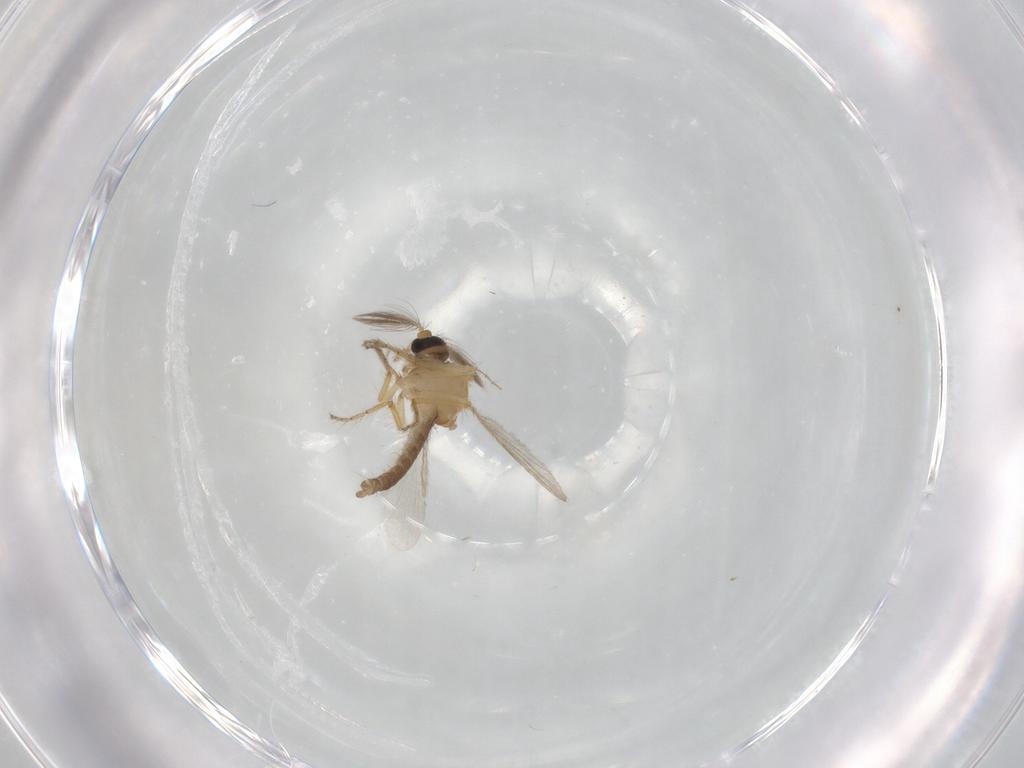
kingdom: Animalia
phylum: Arthropoda
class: Insecta
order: Diptera
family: Ceratopogonidae
